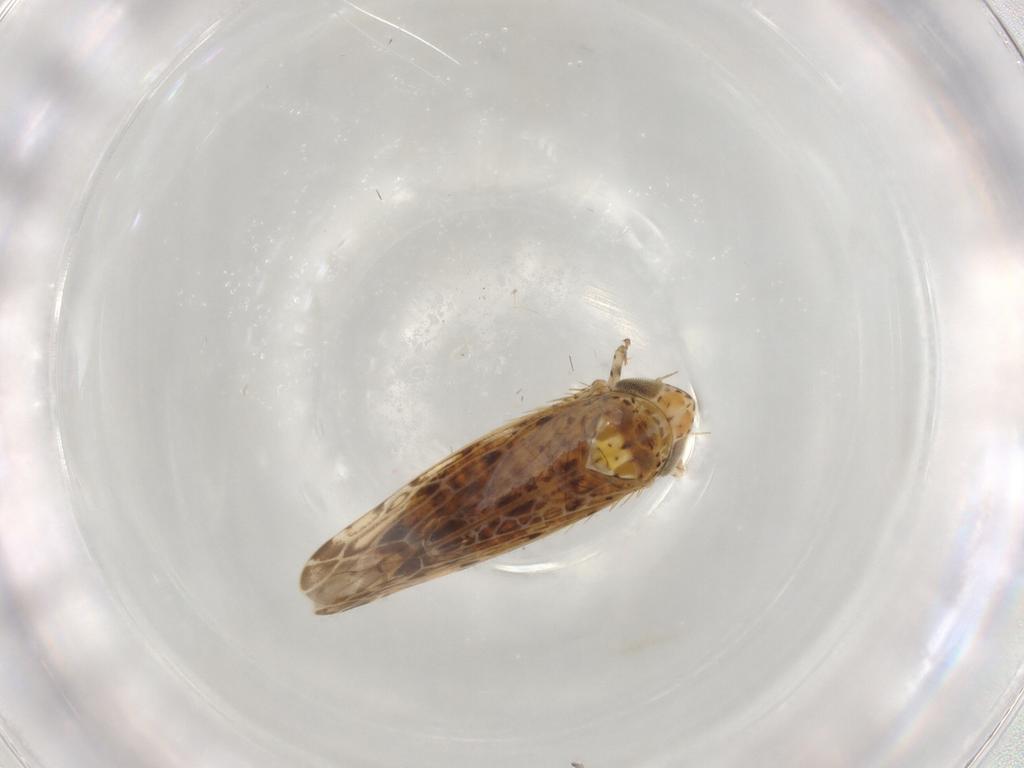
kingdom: Animalia
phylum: Arthropoda
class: Insecta
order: Hemiptera
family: Cicadellidae
